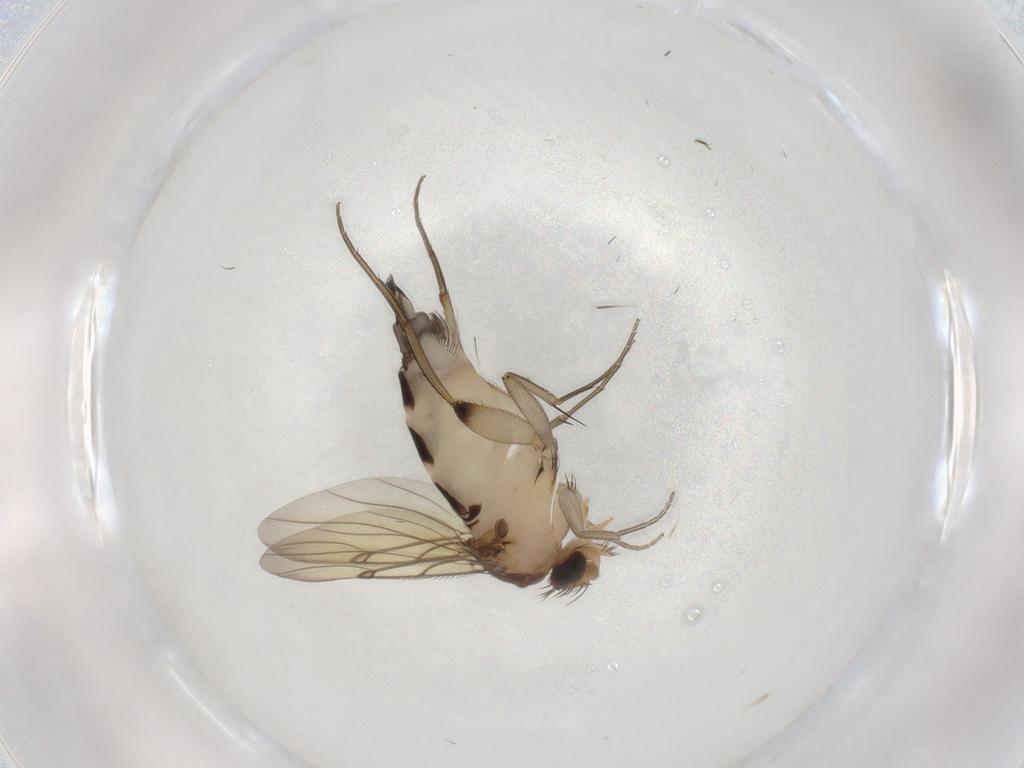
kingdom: Animalia
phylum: Arthropoda
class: Insecta
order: Diptera
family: Phoridae
